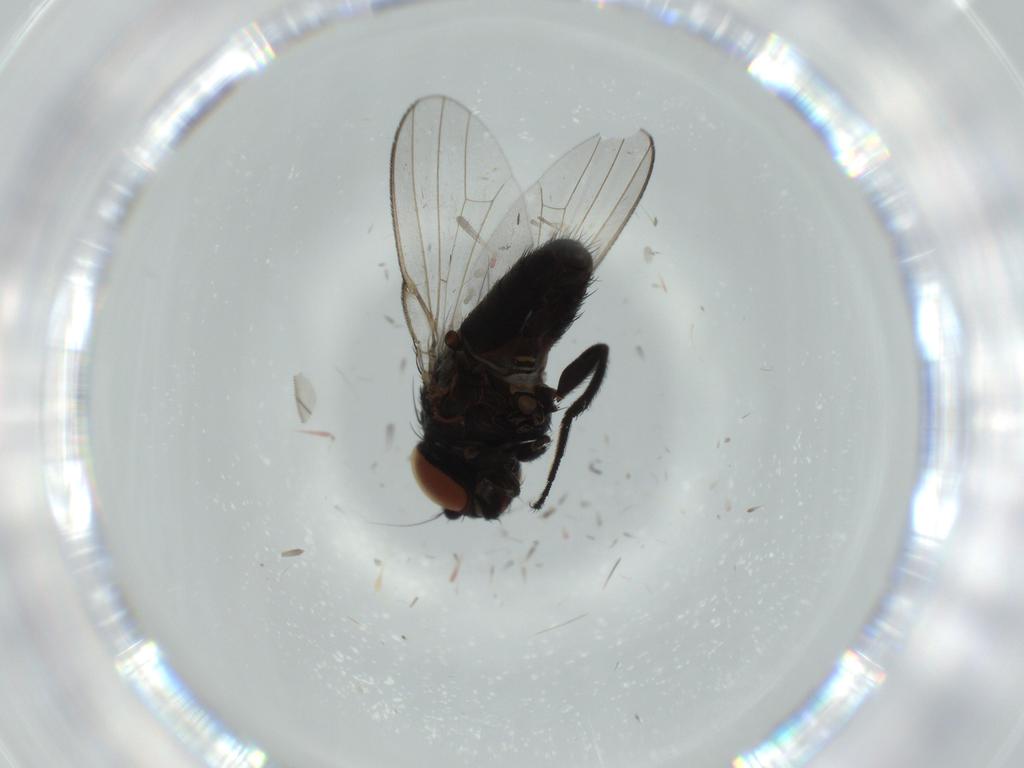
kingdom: Animalia
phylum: Arthropoda
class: Insecta
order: Diptera
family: Milichiidae
